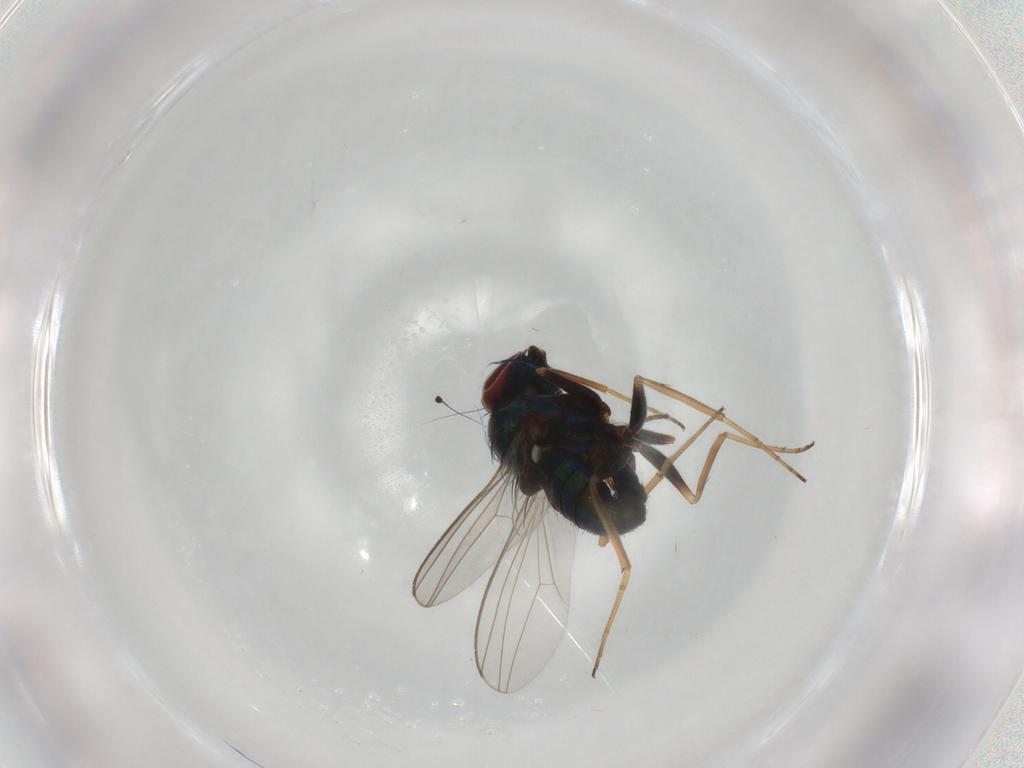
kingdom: Animalia
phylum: Arthropoda
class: Insecta
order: Diptera
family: Dolichopodidae
